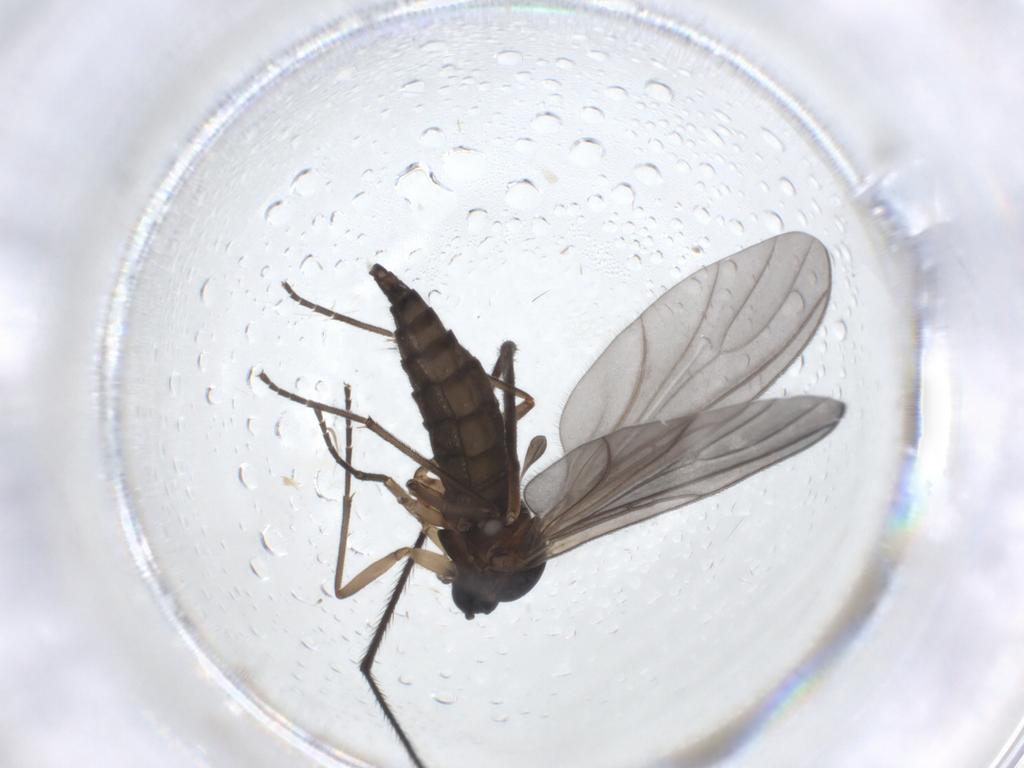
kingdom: Animalia
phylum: Arthropoda
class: Insecta
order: Diptera
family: Sciaridae
